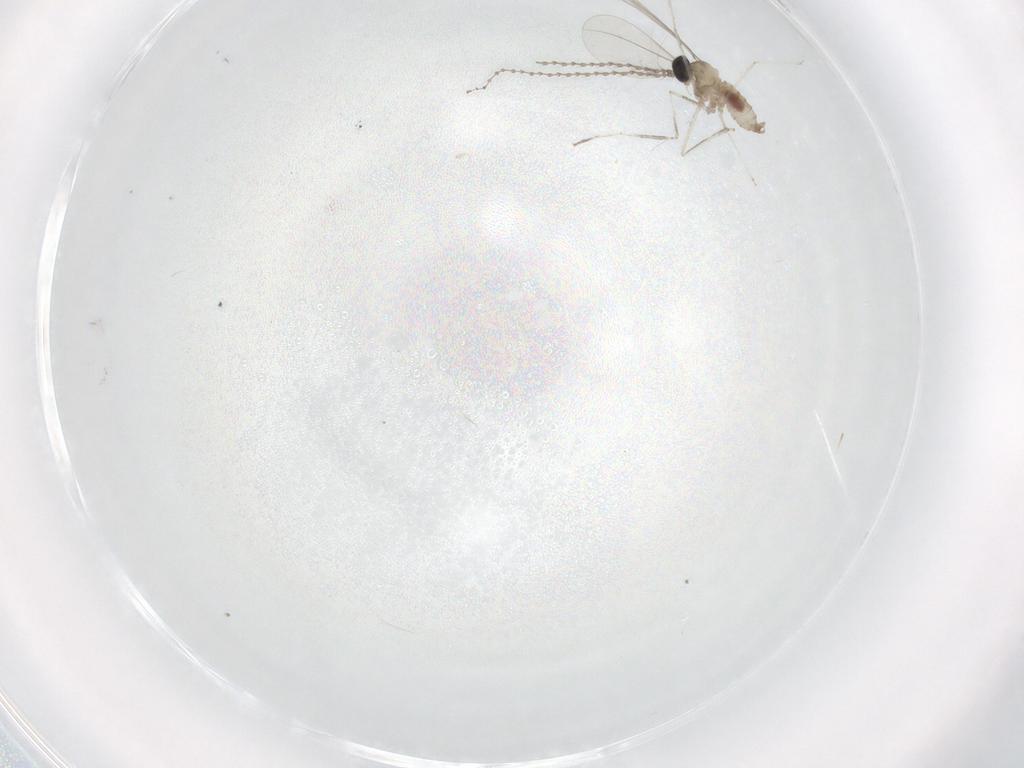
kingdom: Animalia
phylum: Arthropoda
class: Insecta
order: Diptera
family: Cecidomyiidae
